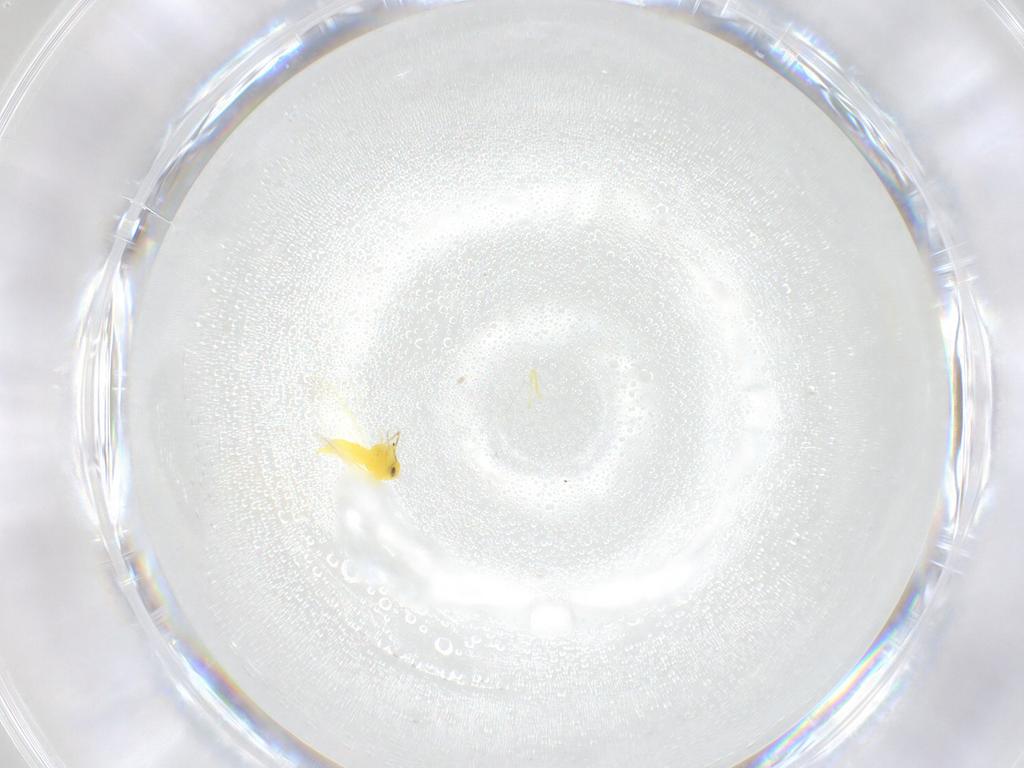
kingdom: Animalia
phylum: Arthropoda
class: Insecta
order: Hemiptera
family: Aleyrodidae
